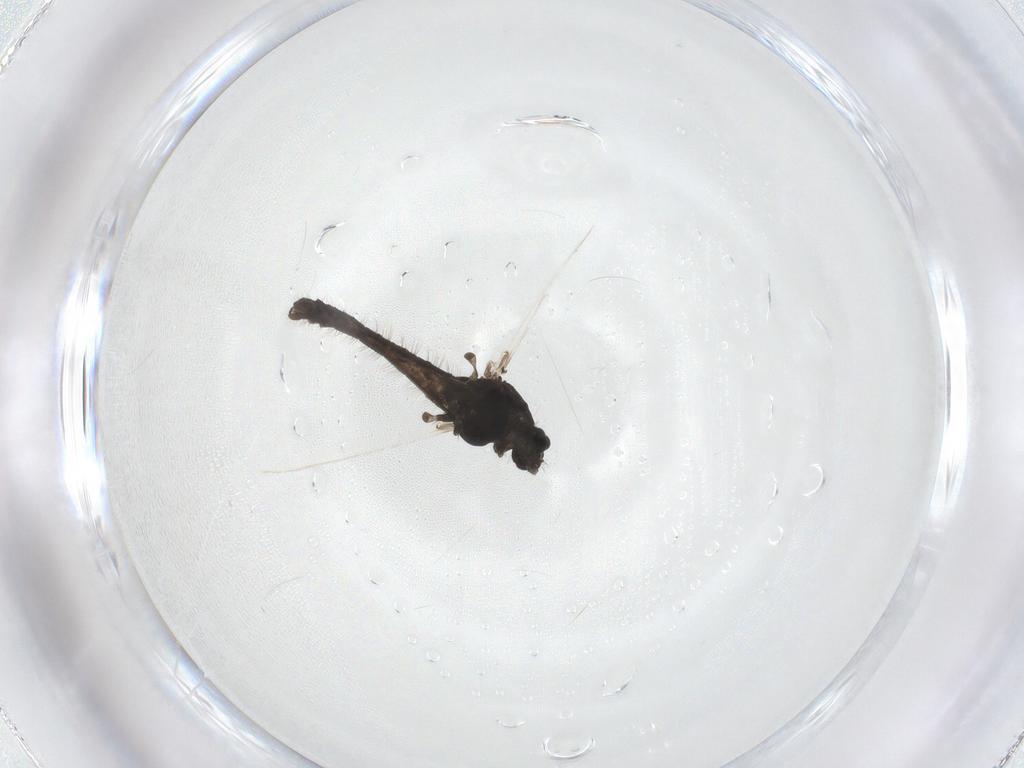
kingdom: Animalia
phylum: Arthropoda
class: Insecta
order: Diptera
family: Chironomidae
